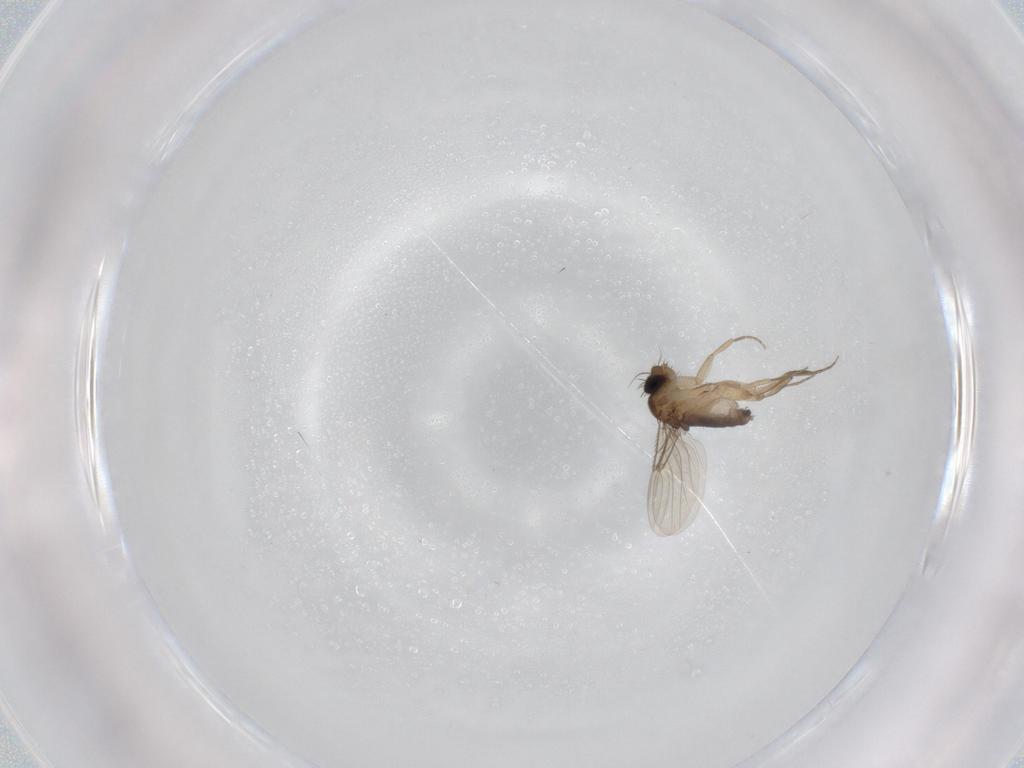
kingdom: Animalia
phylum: Arthropoda
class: Insecta
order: Diptera
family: Phoridae
